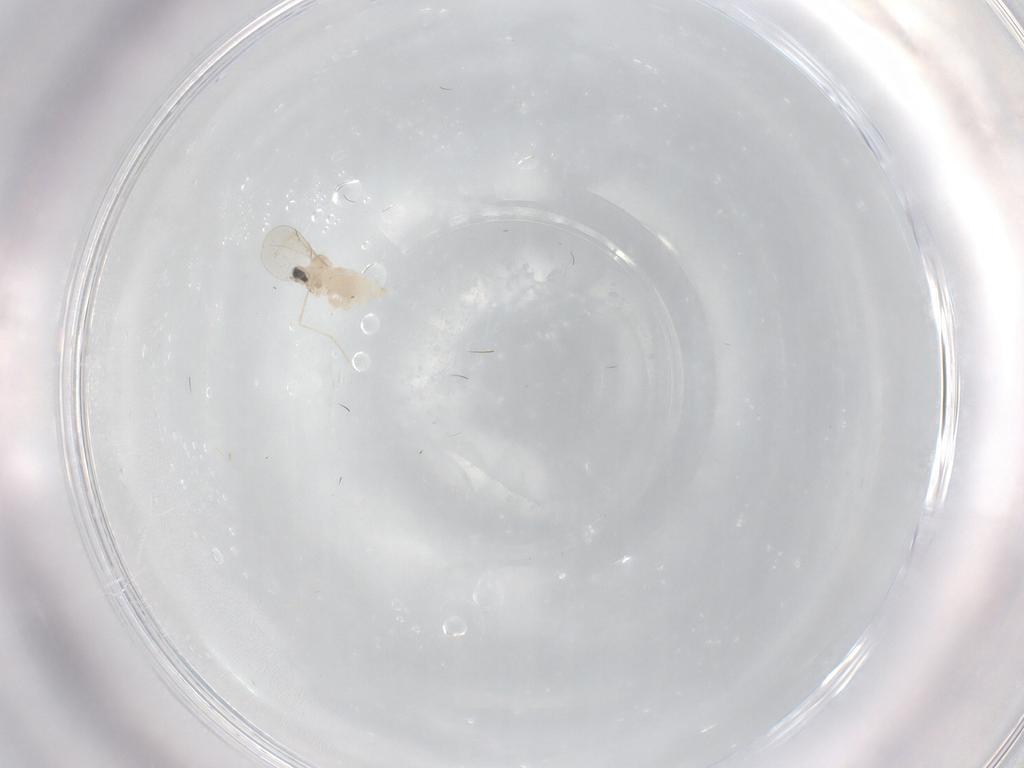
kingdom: Animalia
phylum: Arthropoda
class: Insecta
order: Diptera
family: Cecidomyiidae
